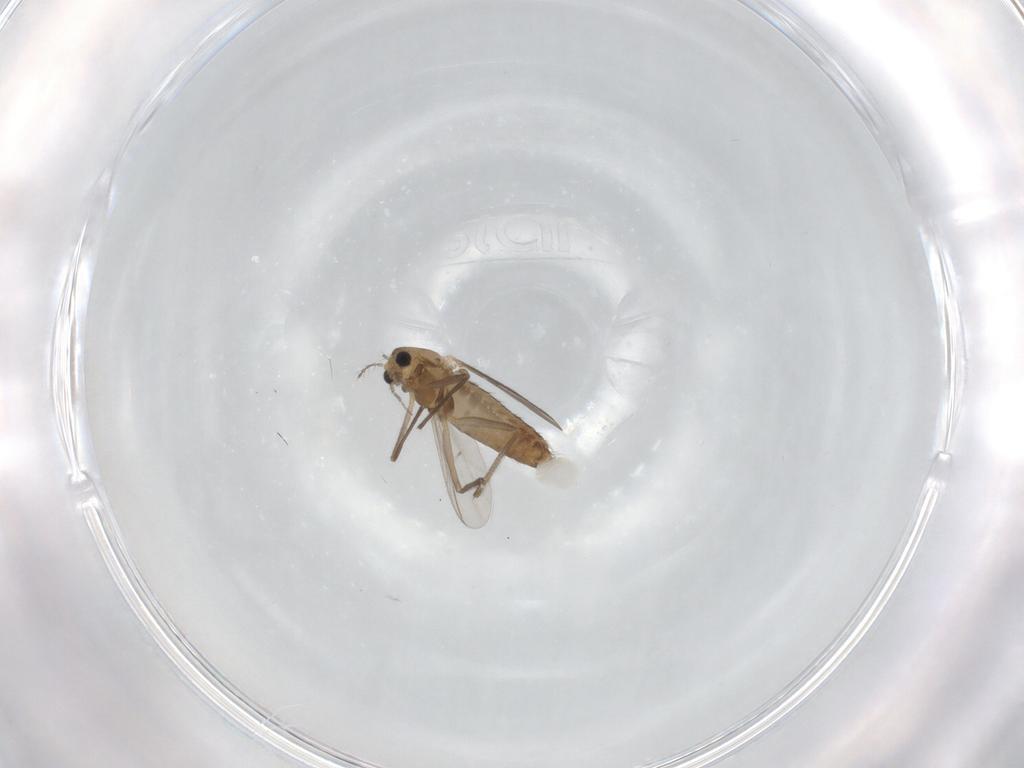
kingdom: Animalia
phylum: Arthropoda
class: Insecta
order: Diptera
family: Chironomidae
